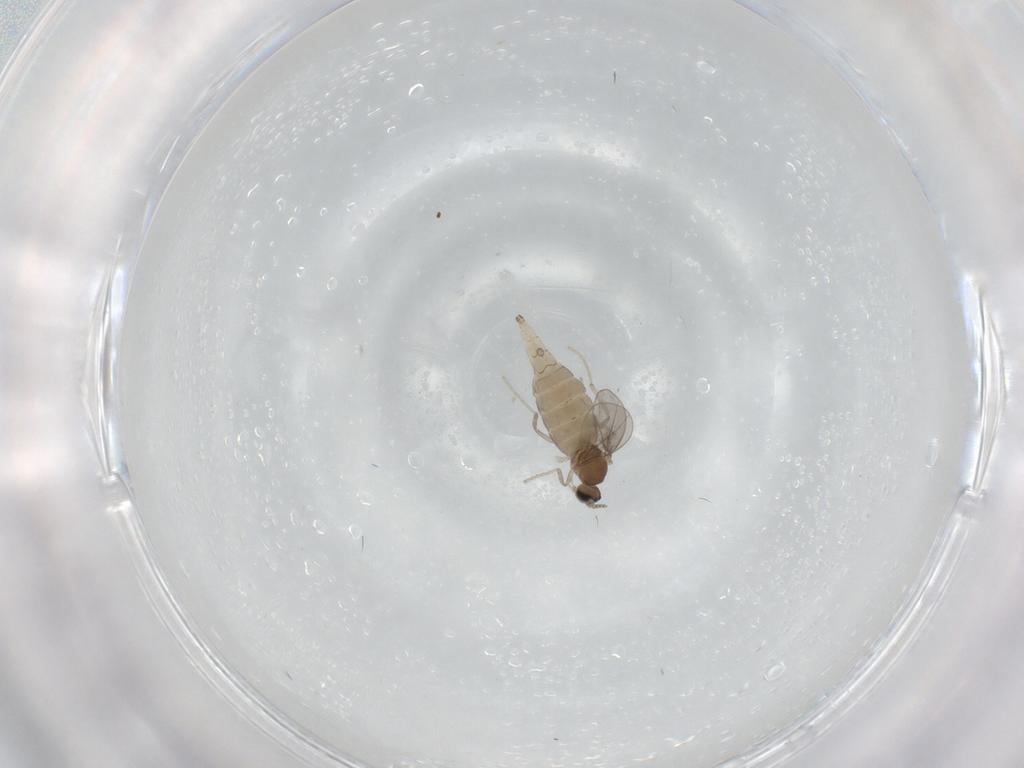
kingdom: Animalia
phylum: Arthropoda
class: Insecta
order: Diptera
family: Cecidomyiidae
